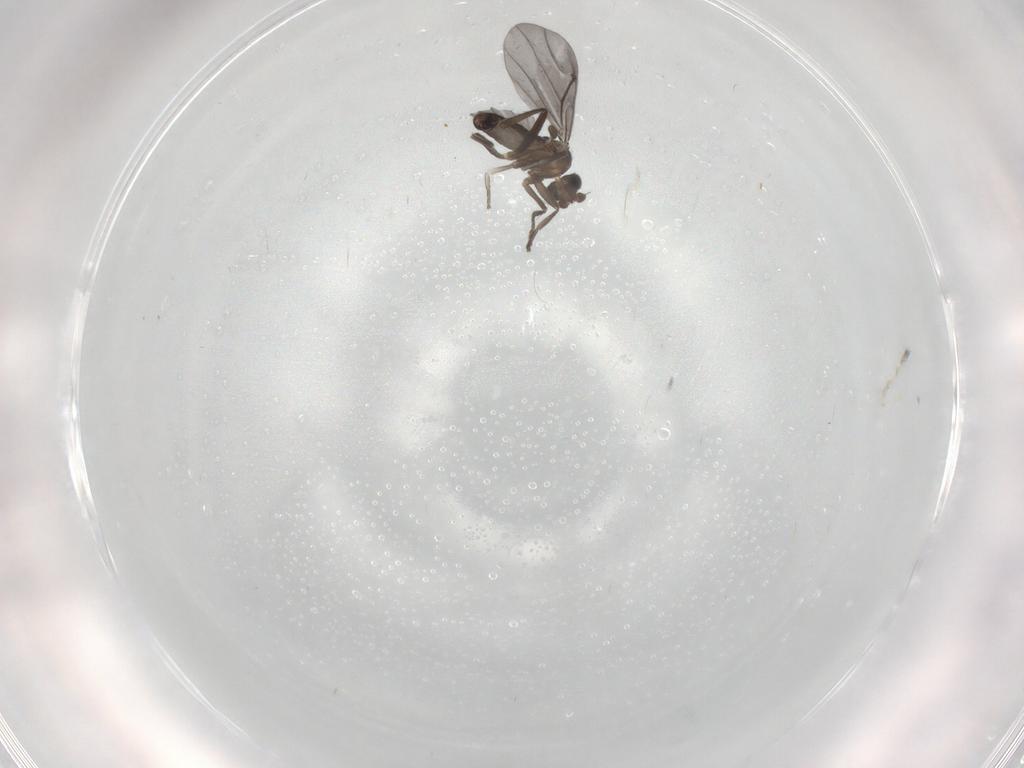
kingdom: Animalia
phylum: Arthropoda
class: Insecta
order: Diptera
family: Phoridae
